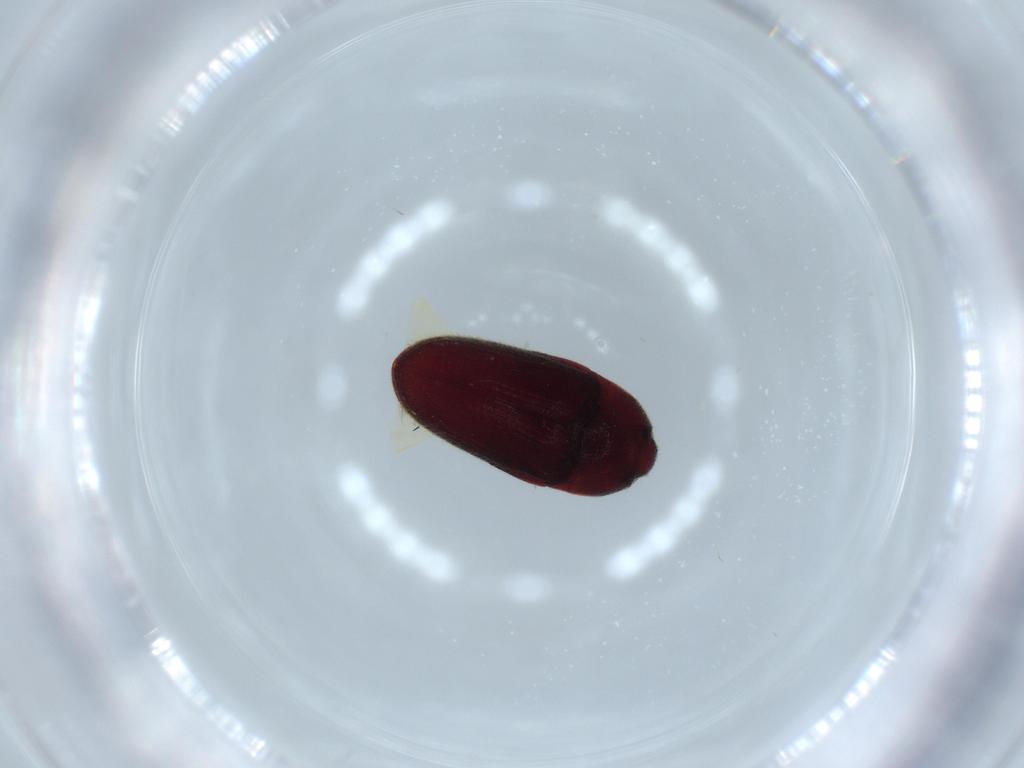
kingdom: Animalia
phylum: Arthropoda
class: Insecta
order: Coleoptera
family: Throscidae
